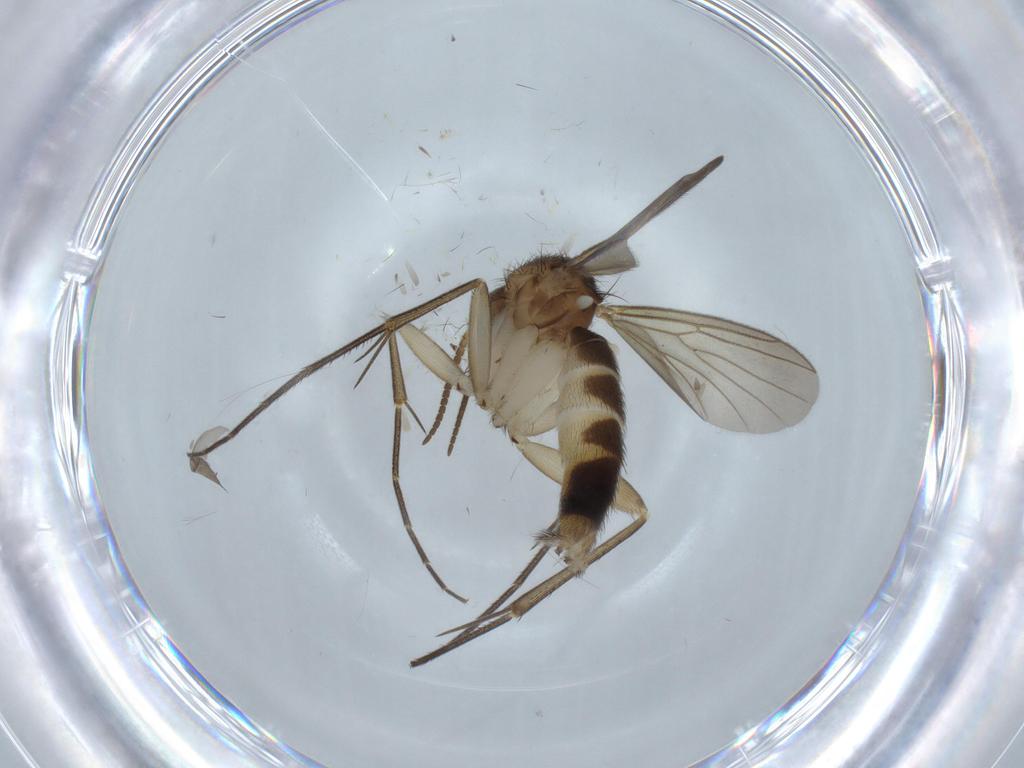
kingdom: Animalia
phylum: Arthropoda
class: Insecta
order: Diptera
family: Mycetophilidae
